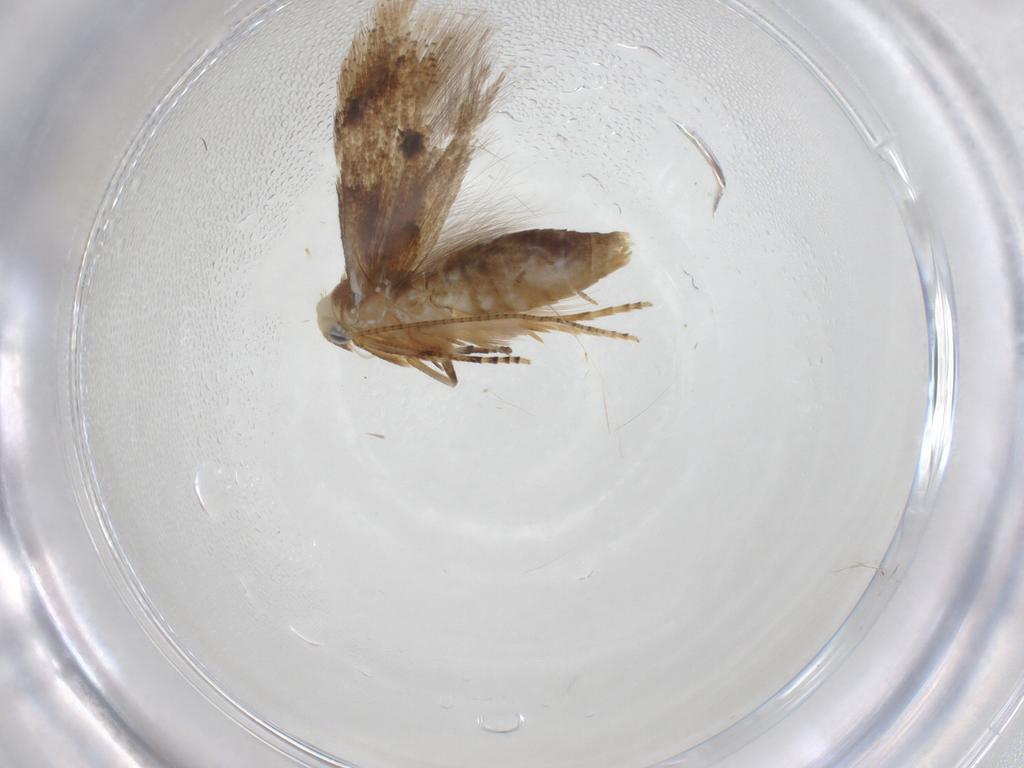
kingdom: Animalia
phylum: Arthropoda
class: Insecta
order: Lepidoptera
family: Bucculatricidae
